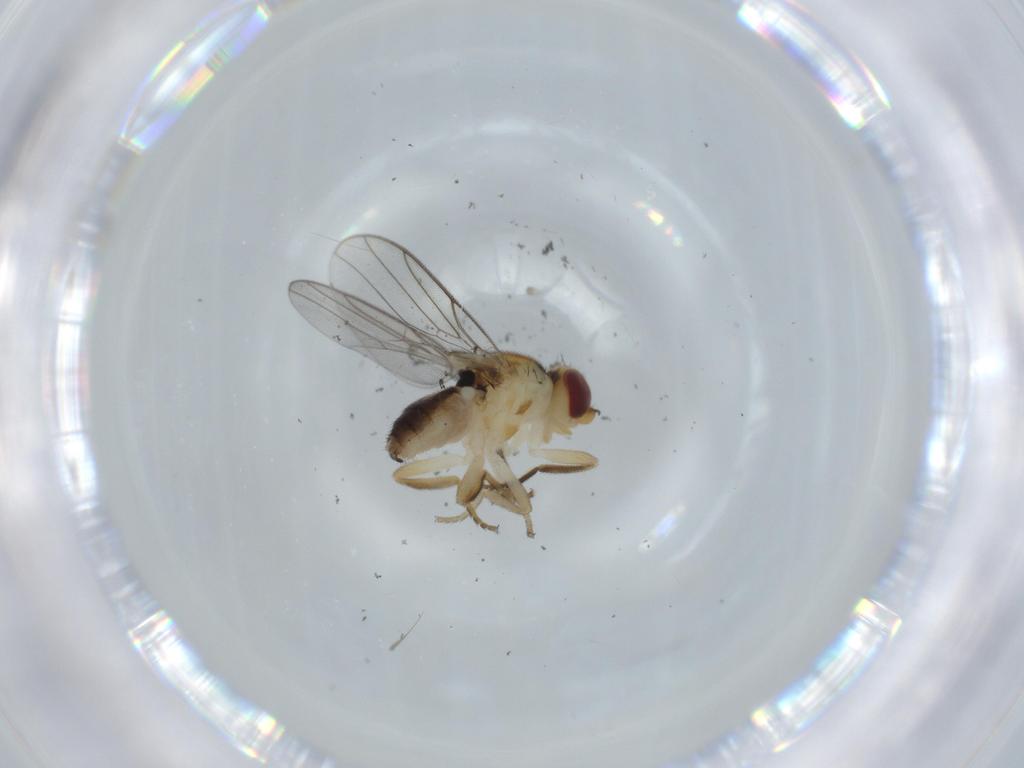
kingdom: Animalia
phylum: Arthropoda
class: Insecta
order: Diptera
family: Chloropidae
